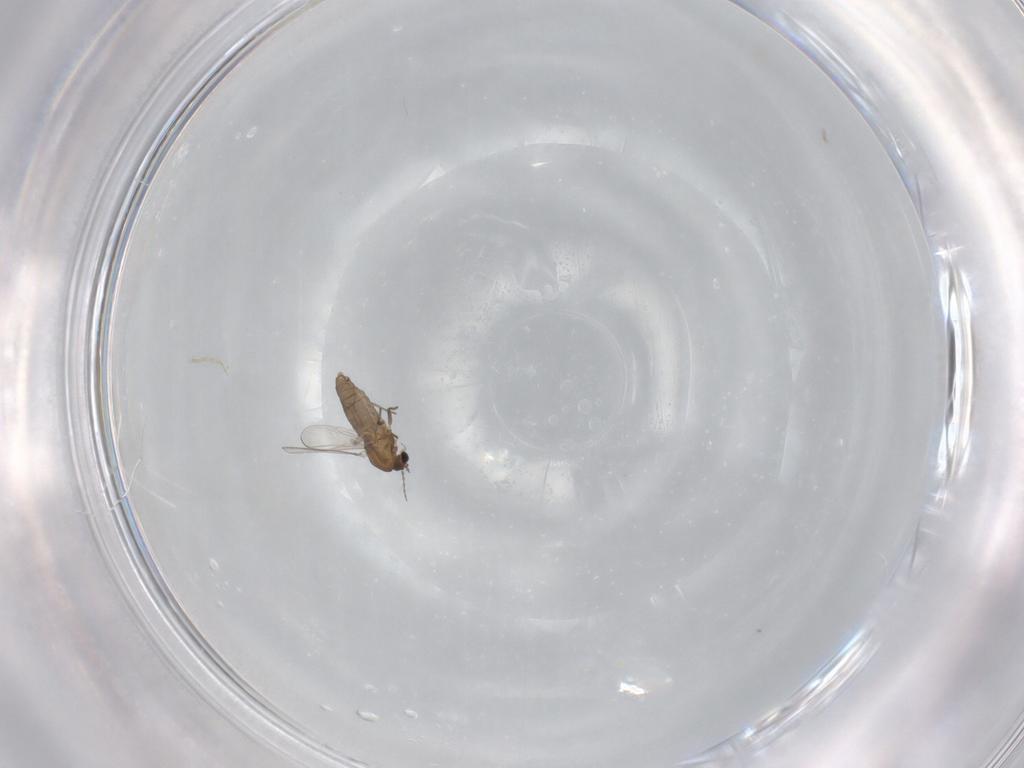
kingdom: Animalia
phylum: Arthropoda
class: Insecta
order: Diptera
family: Chironomidae
